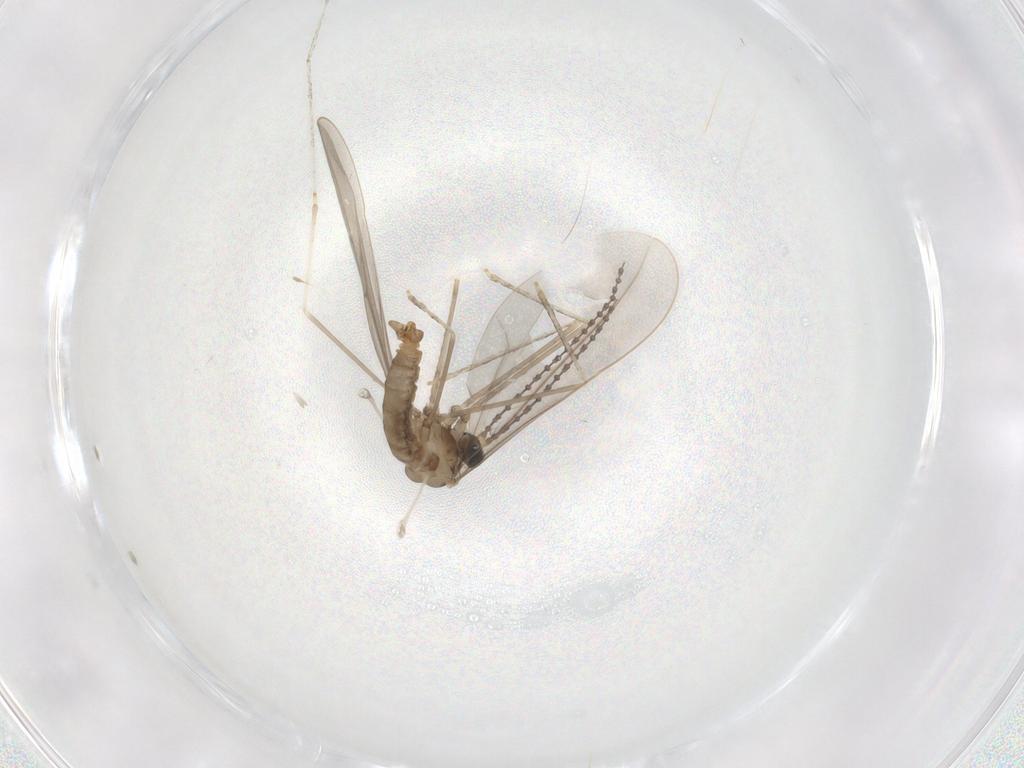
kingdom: Animalia
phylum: Arthropoda
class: Insecta
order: Diptera
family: Cecidomyiidae
